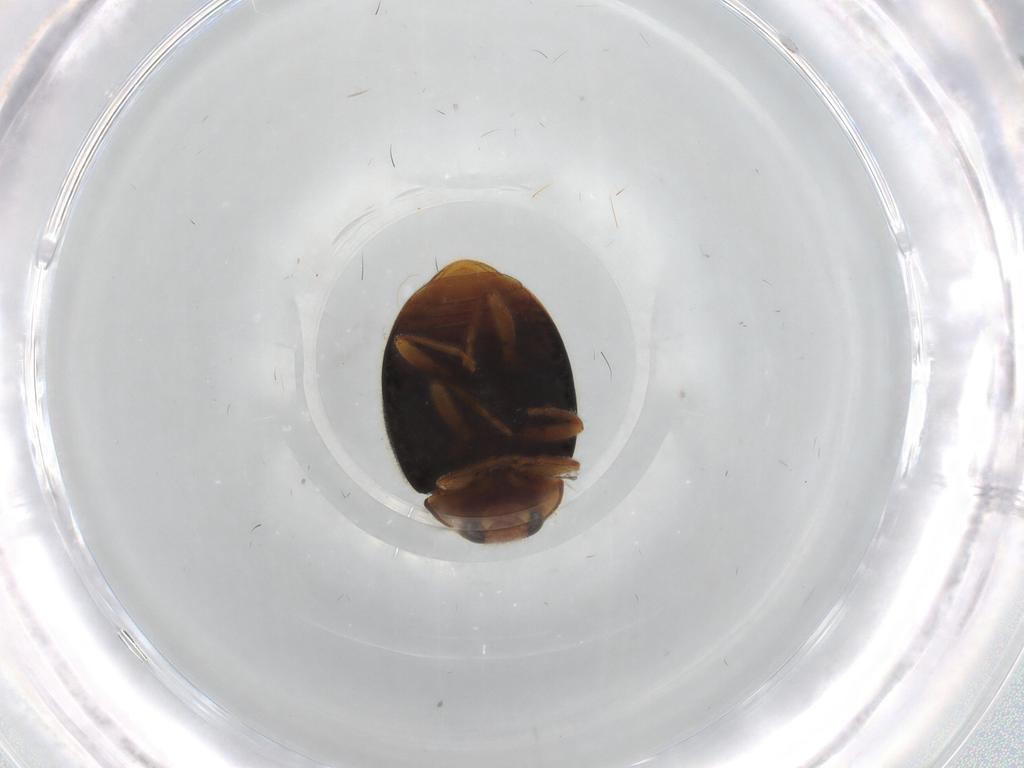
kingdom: Animalia
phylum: Arthropoda
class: Insecta
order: Coleoptera
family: Coccinellidae
